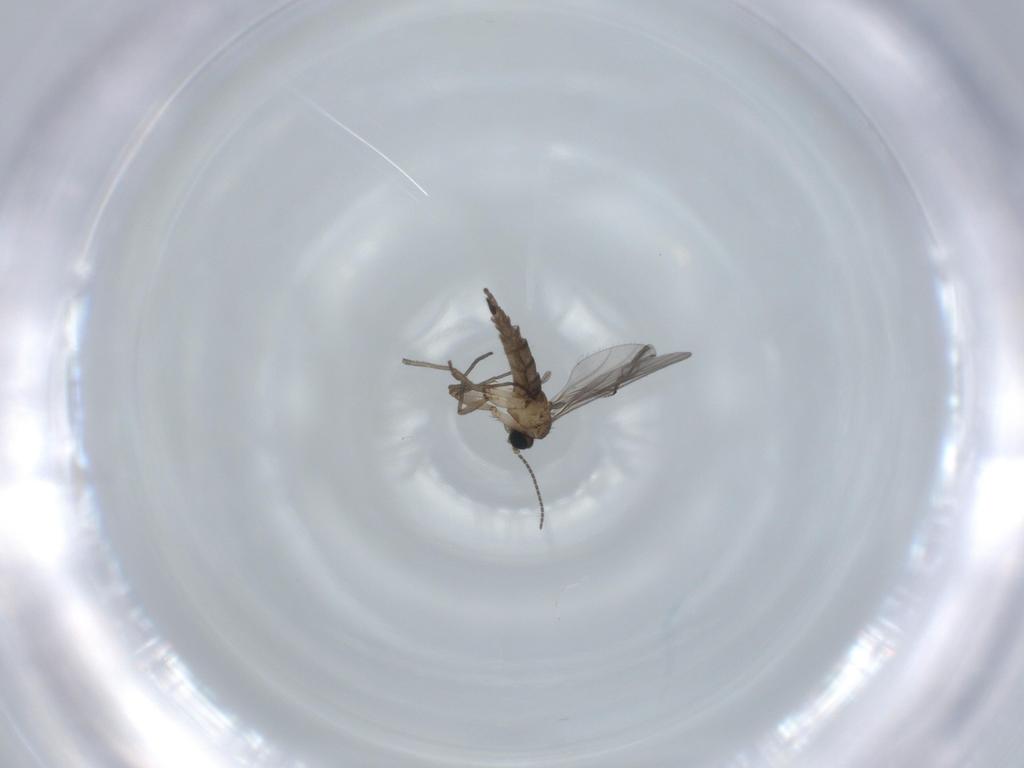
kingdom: Animalia
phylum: Arthropoda
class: Insecta
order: Diptera
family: Sciaridae
